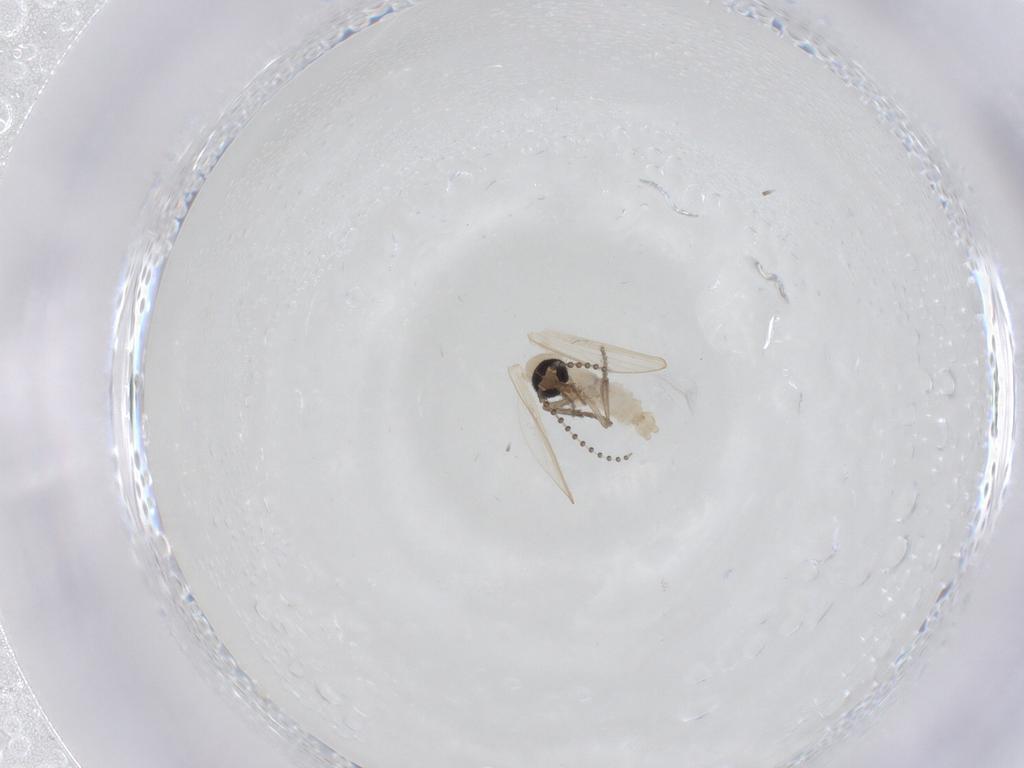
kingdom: Animalia
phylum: Arthropoda
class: Insecta
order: Diptera
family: Psychodidae
